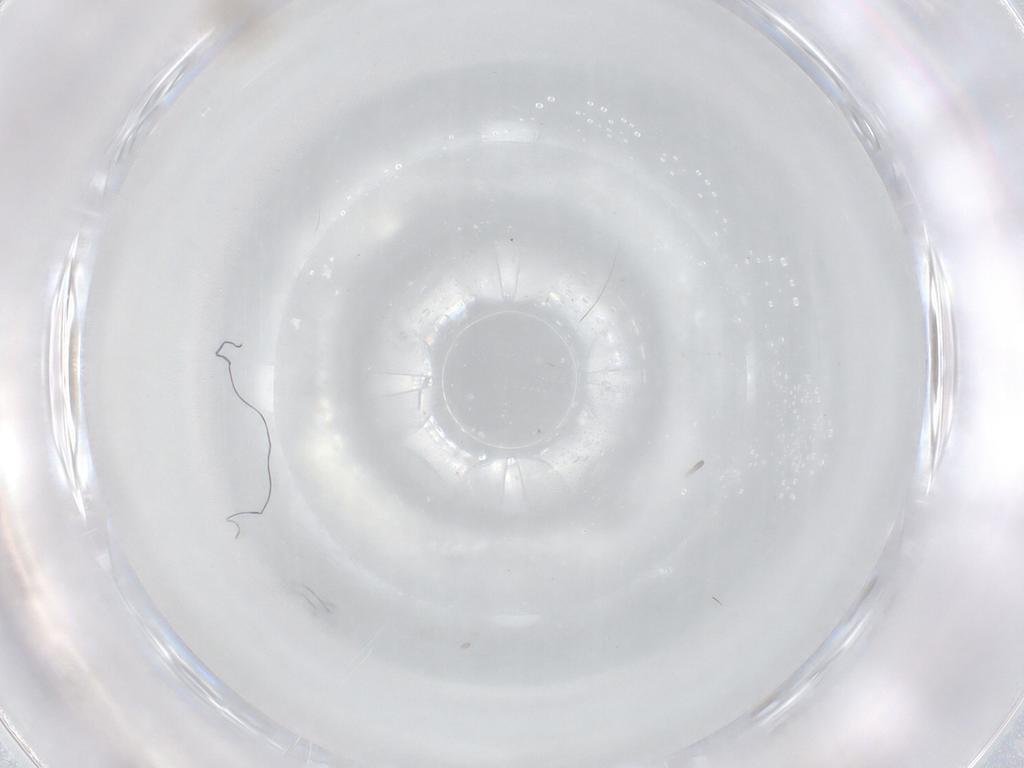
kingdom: Animalia
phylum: Arthropoda
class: Insecta
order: Diptera
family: Cecidomyiidae
